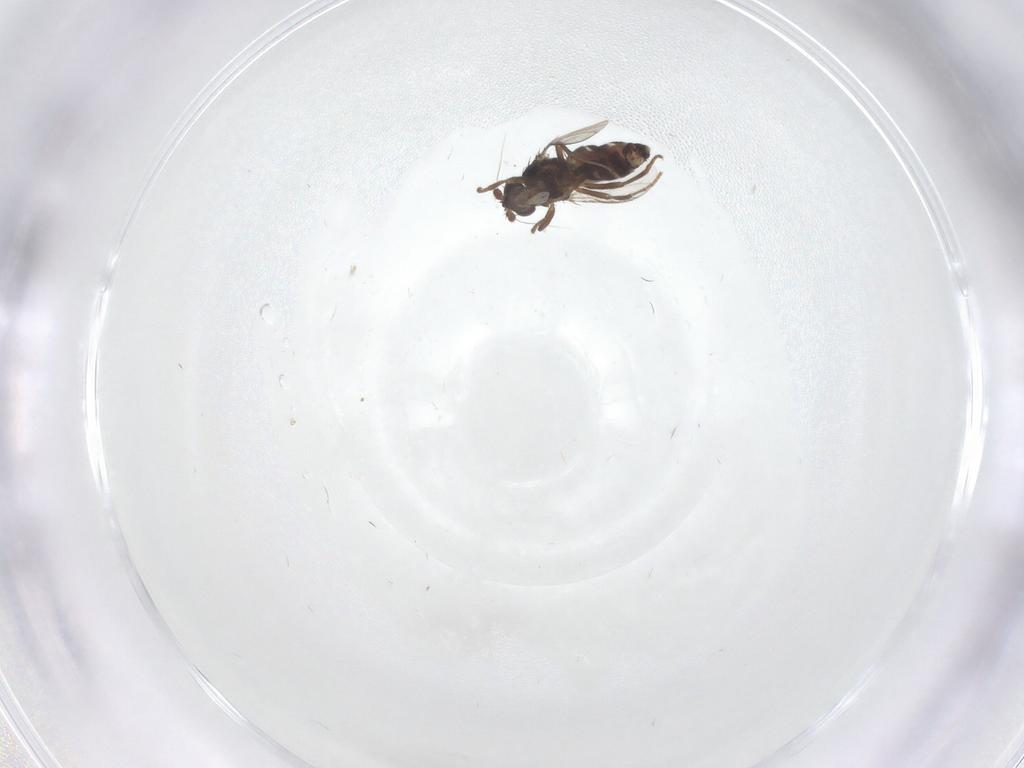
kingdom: Animalia
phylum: Arthropoda
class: Insecta
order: Diptera
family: Sphaeroceridae
